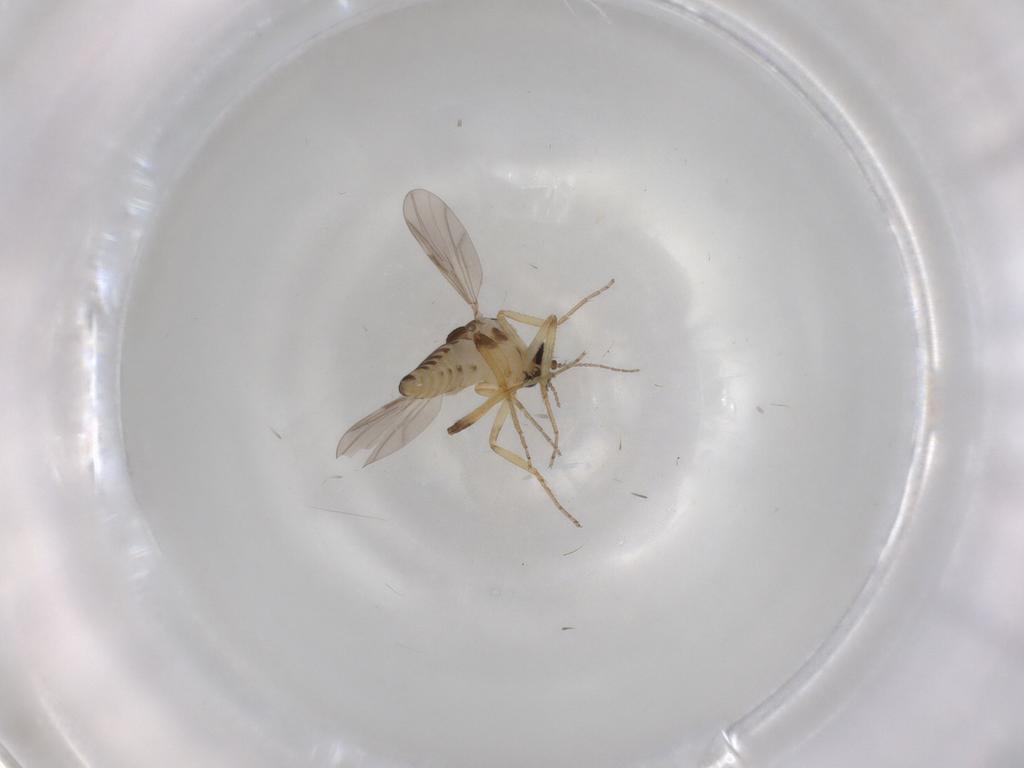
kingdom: Animalia
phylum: Arthropoda
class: Insecta
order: Diptera
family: Ceratopogonidae
